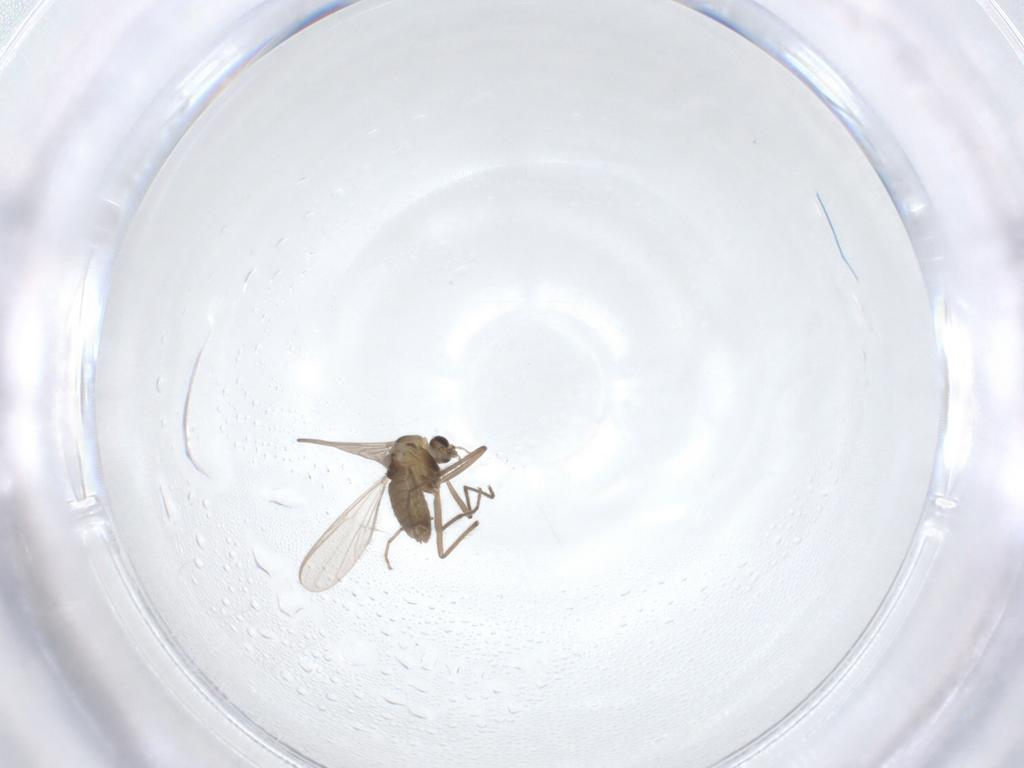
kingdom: Animalia
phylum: Arthropoda
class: Insecta
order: Diptera
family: Chironomidae
